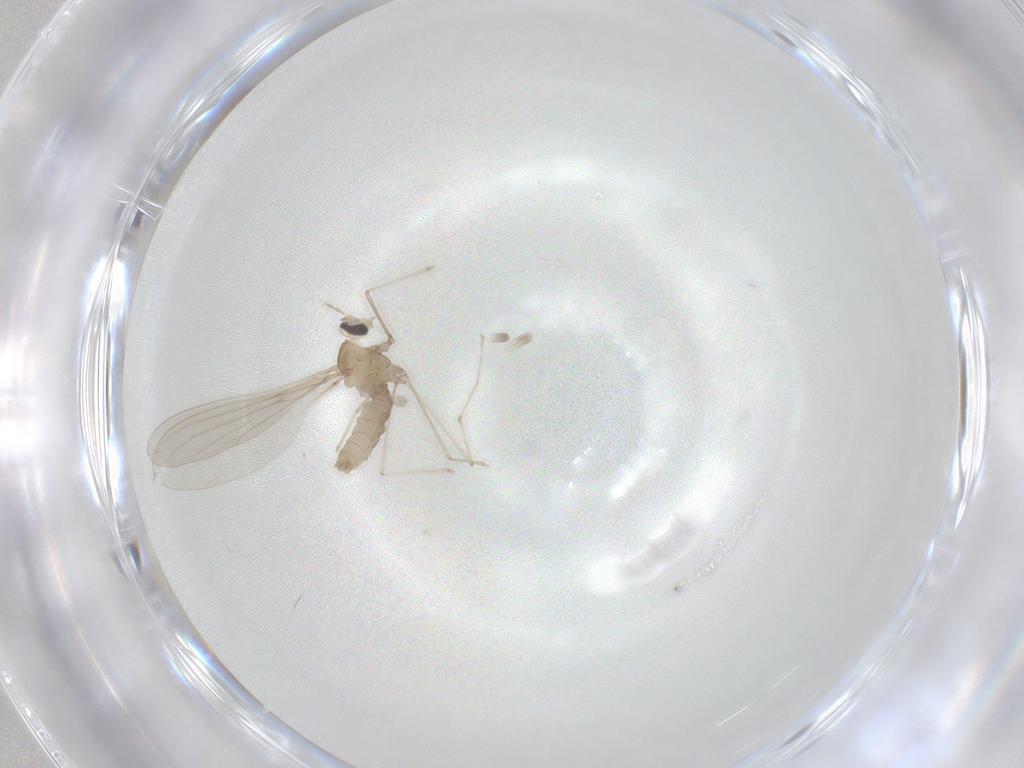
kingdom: Animalia
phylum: Arthropoda
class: Insecta
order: Diptera
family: Cecidomyiidae
